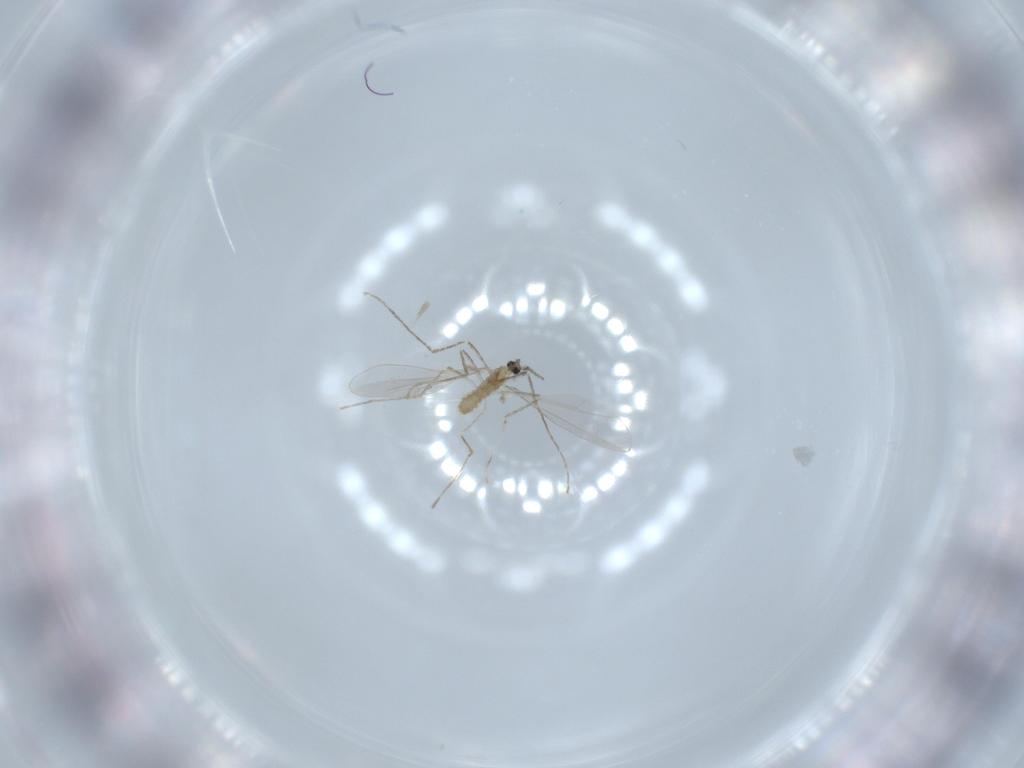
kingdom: Animalia
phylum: Arthropoda
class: Insecta
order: Diptera
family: Cecidomyiidae
